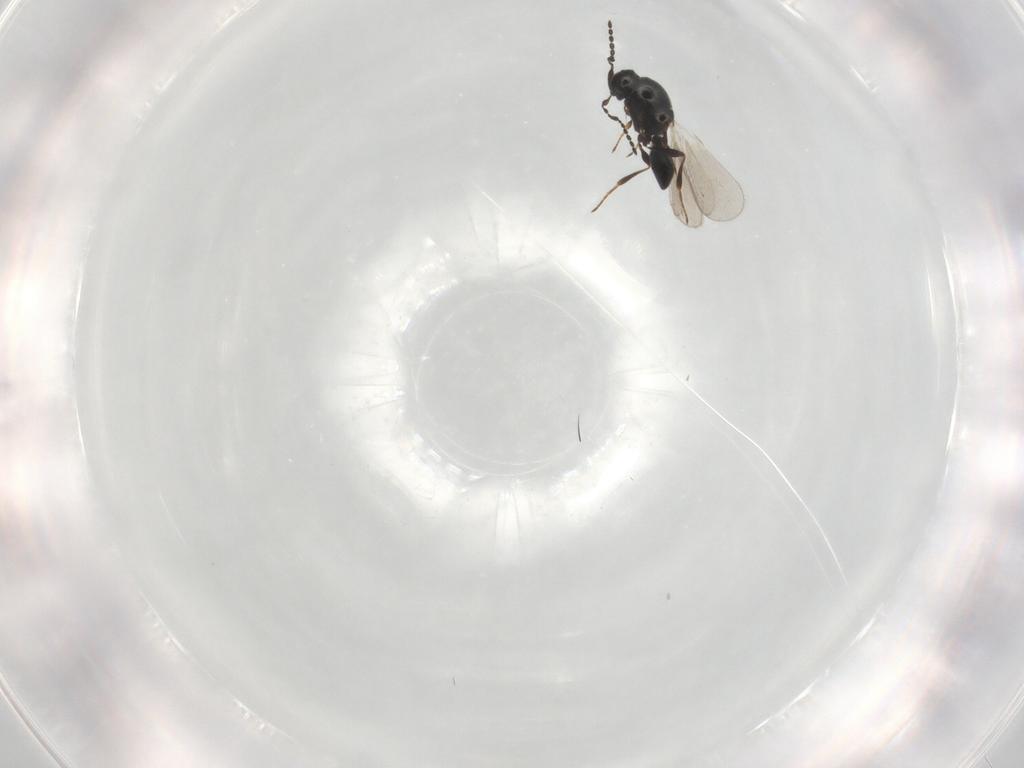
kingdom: Animalia
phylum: Arthropoda
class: Insecta
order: Hymenoptera
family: Platygastridae
